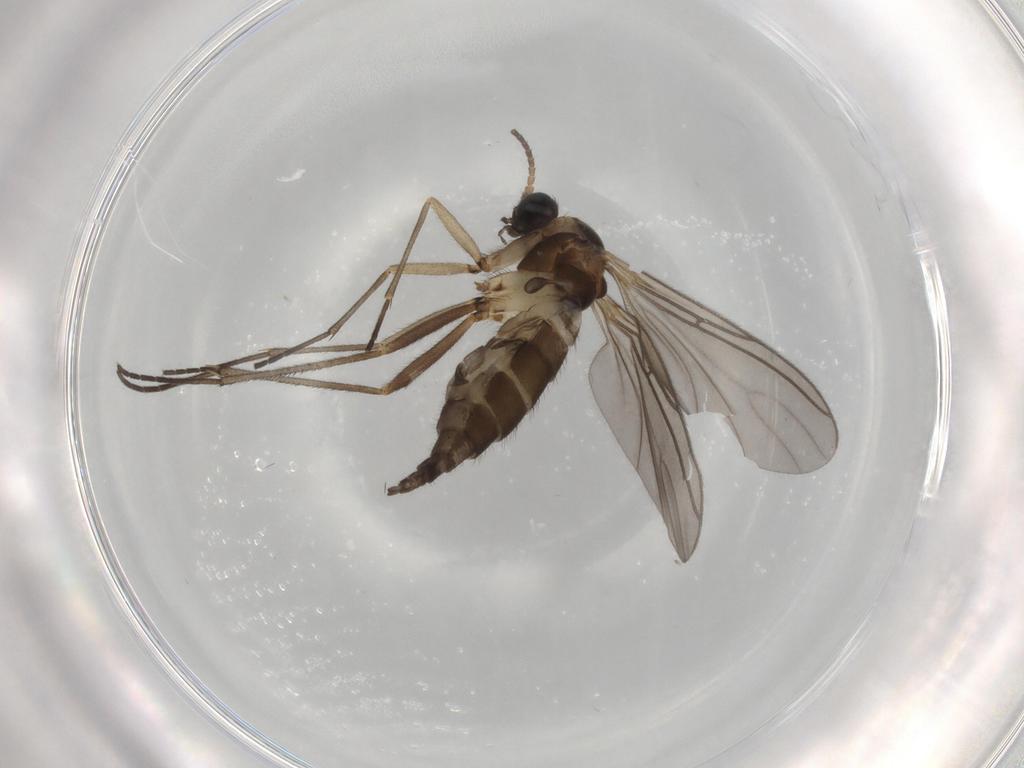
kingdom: Animalia
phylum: Arthropoda
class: Insecta
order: Diptera
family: Sciaridae
